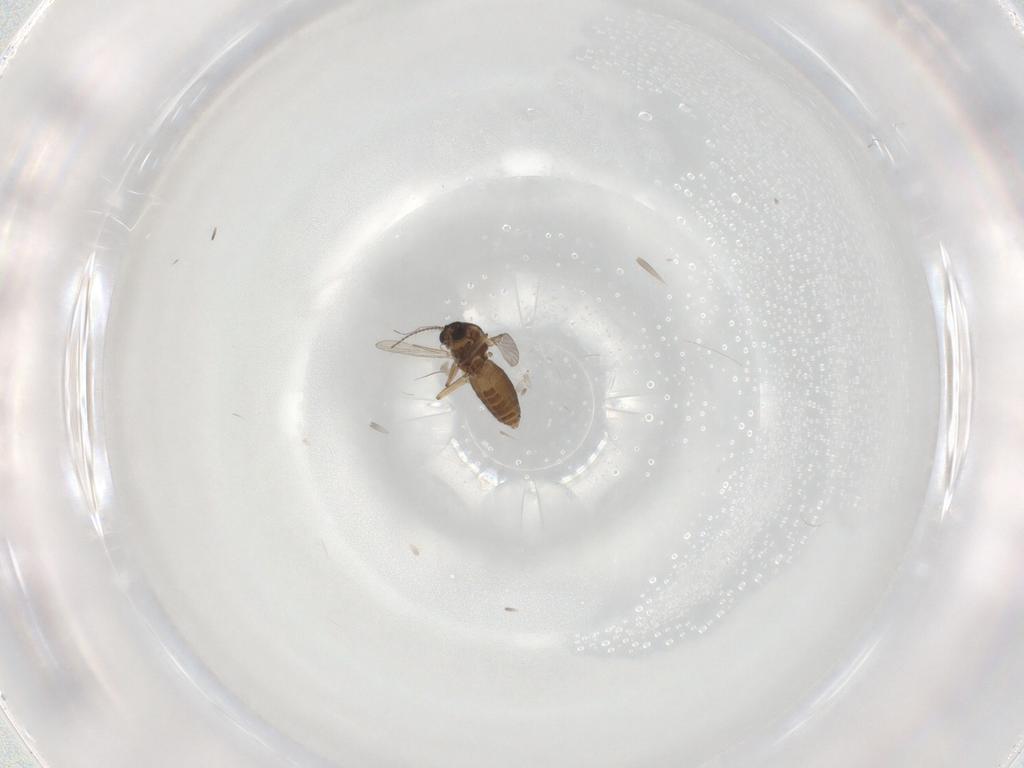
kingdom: Animalia
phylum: Arthropoda
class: Insecta
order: Diptera
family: Ceratopogonidae
